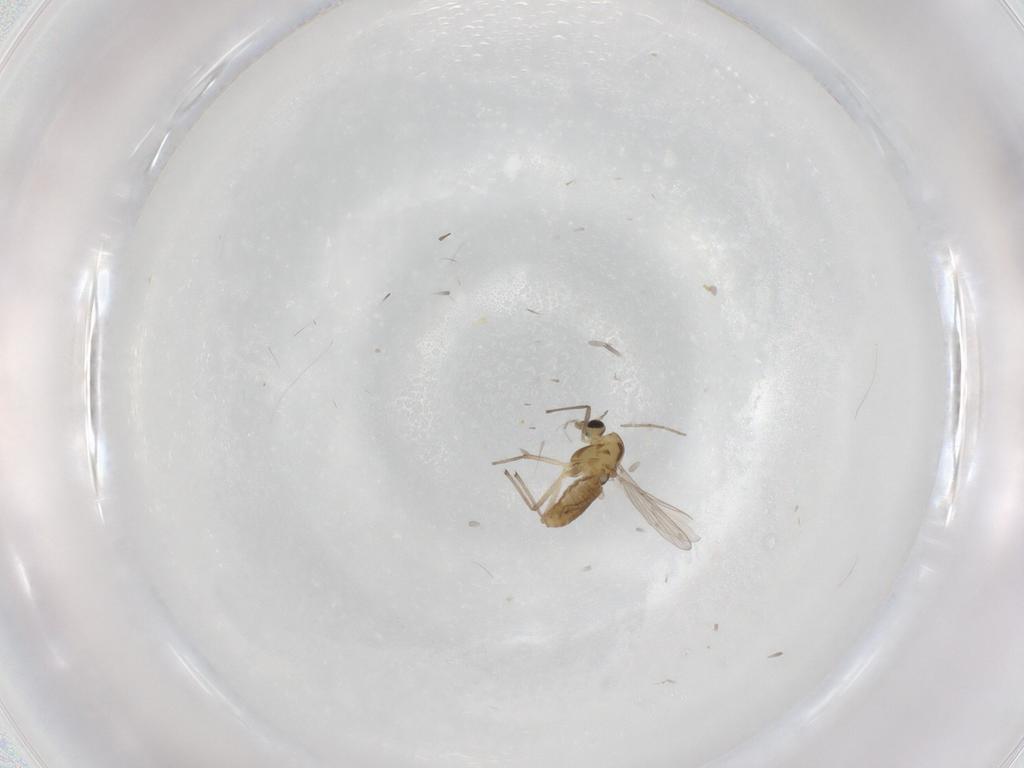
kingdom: Animalia
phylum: Arthropoda
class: Insecta
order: Diptera
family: Chironomidae
